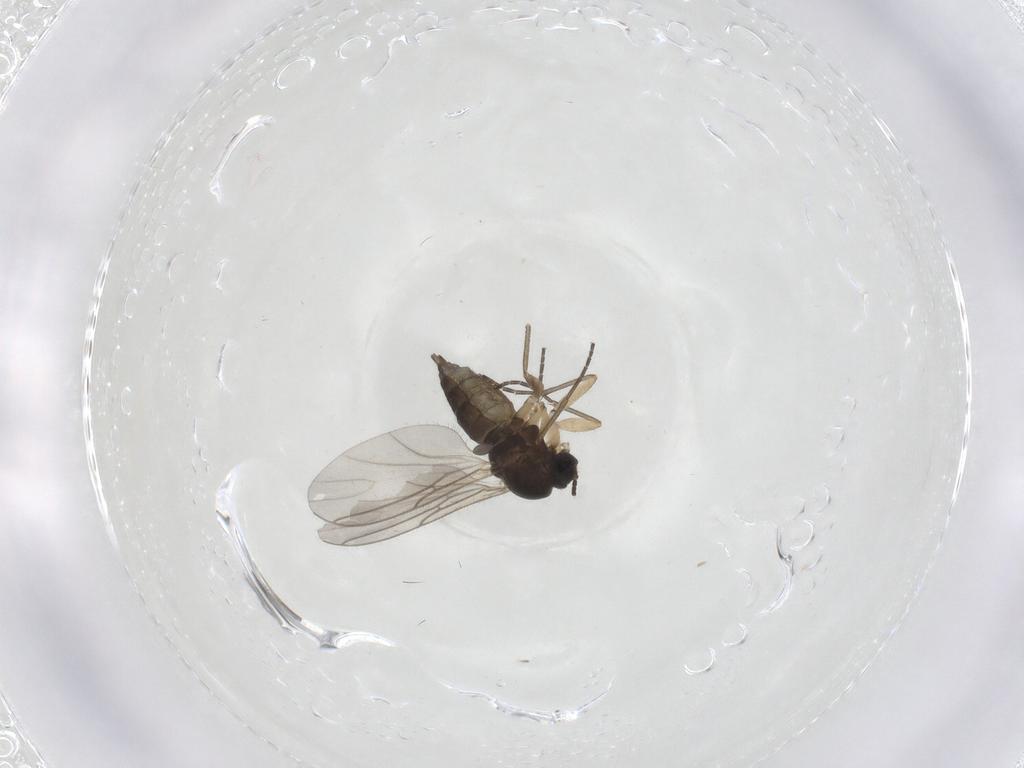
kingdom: Animalia
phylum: Arthropoda
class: Insecta
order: Diptera
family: Sciaridae
